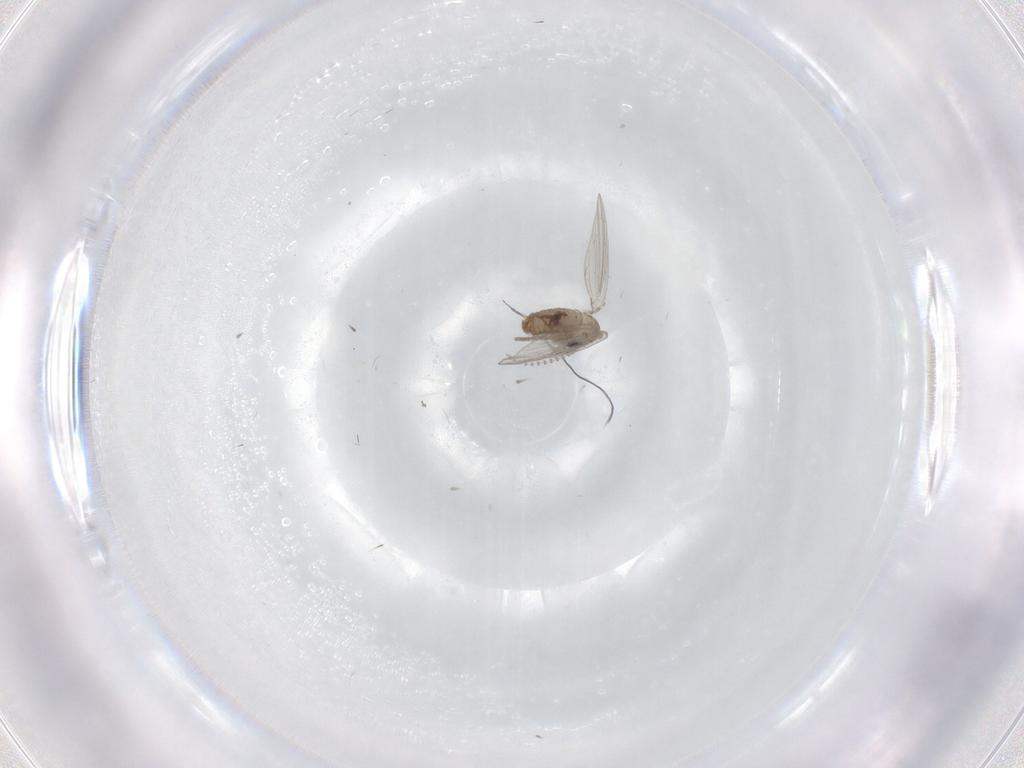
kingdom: Animalia
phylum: Arthropoda
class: Insecta
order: Diptera
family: Psychodidae
